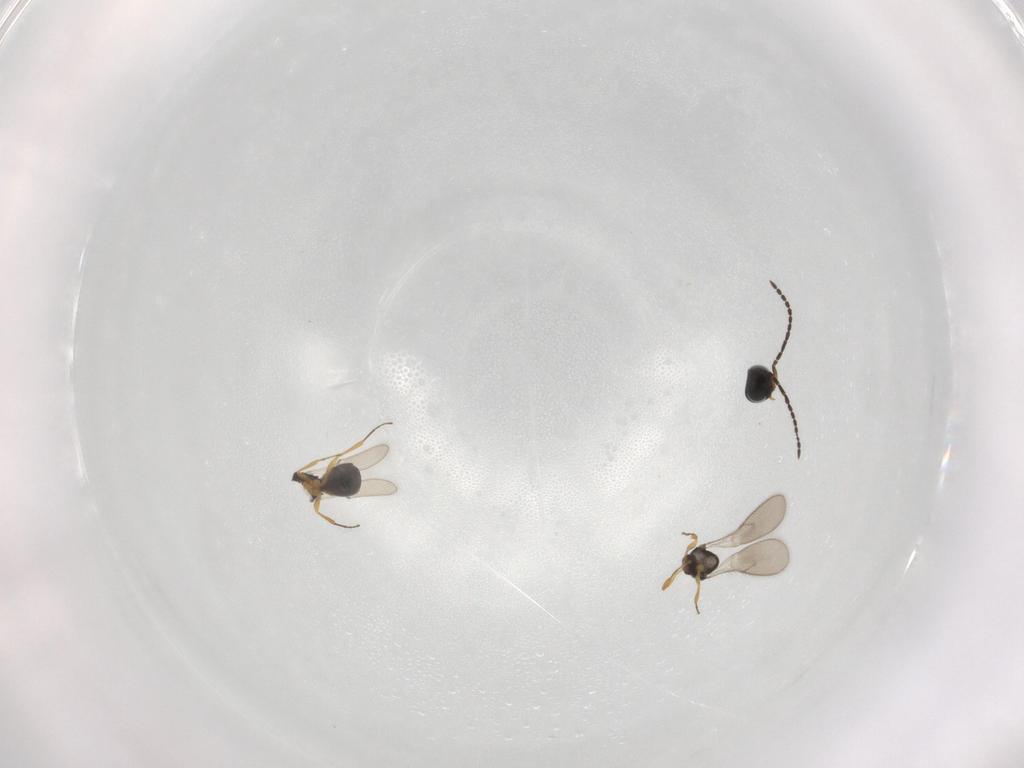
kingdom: Animalia
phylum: Arthropoda
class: Insecta
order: Hymenoptera
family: Scelionidae
